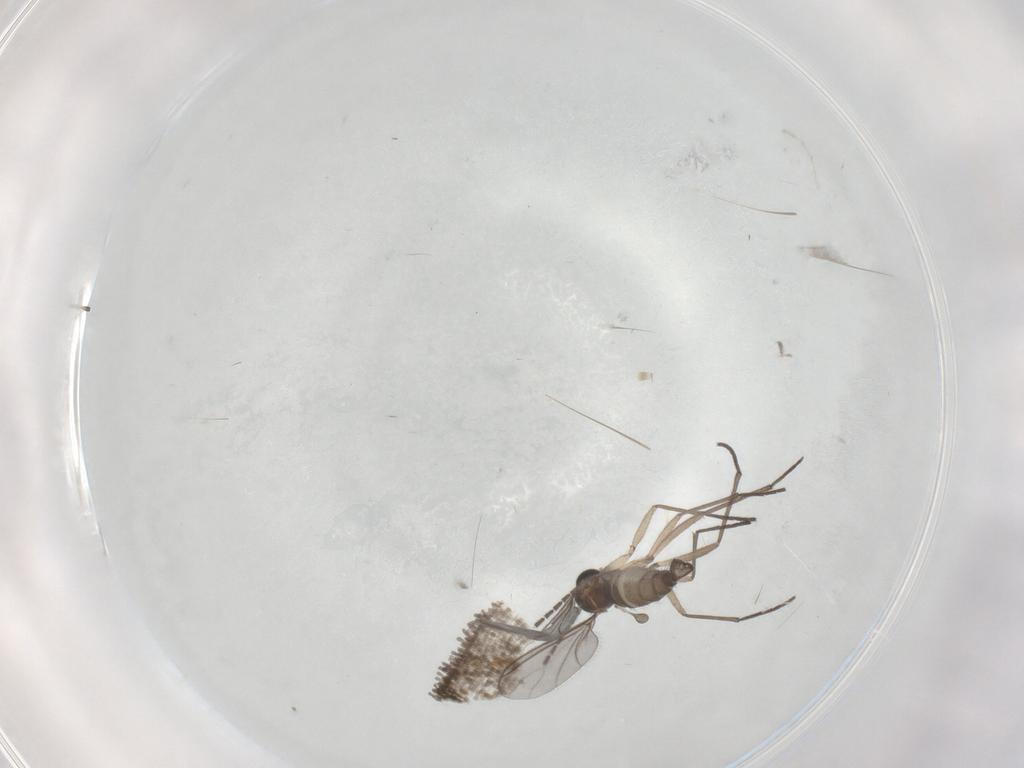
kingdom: Animalia
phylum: Arthropoda
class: Insecta
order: Diptera
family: Sciaridae
